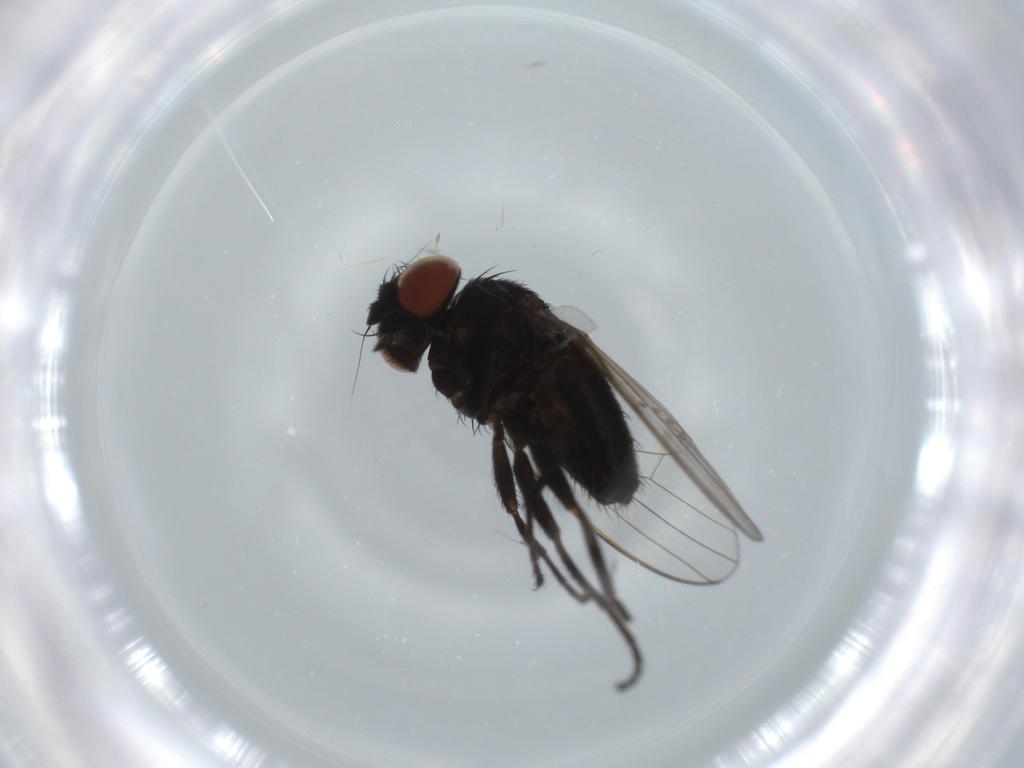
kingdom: Animalia
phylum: Arthropoda
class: Insecta
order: Diptera
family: Milichiidae
